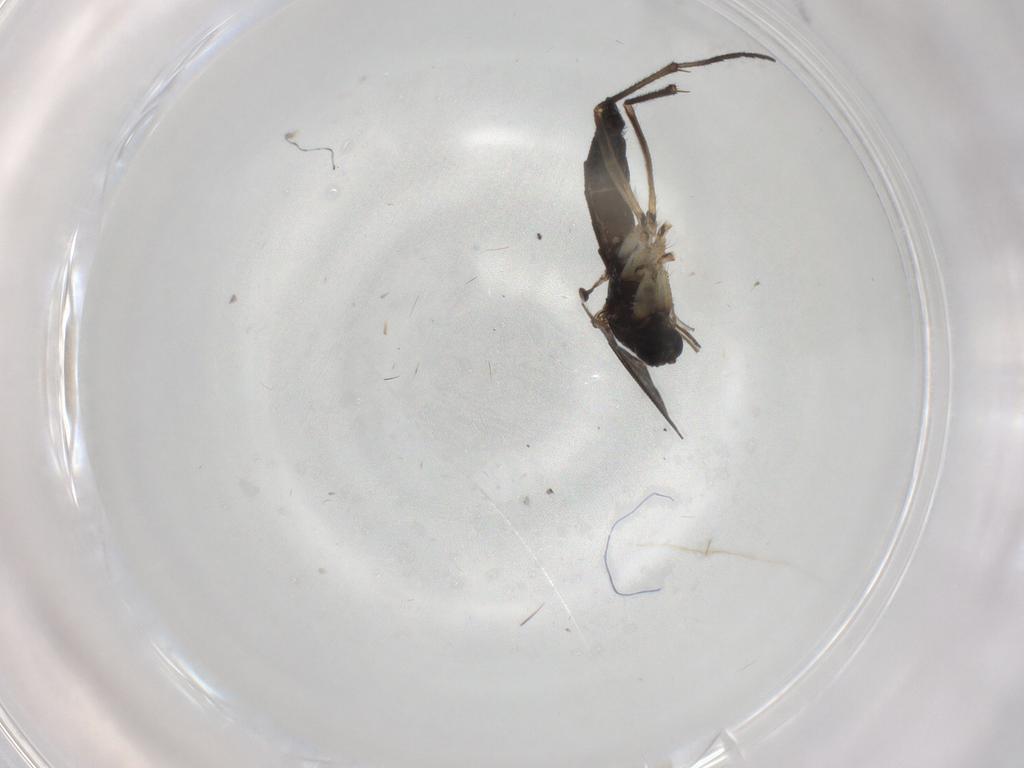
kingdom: Animalia
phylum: Arthropoda
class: Insecta
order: Diptera
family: Sciaridae
